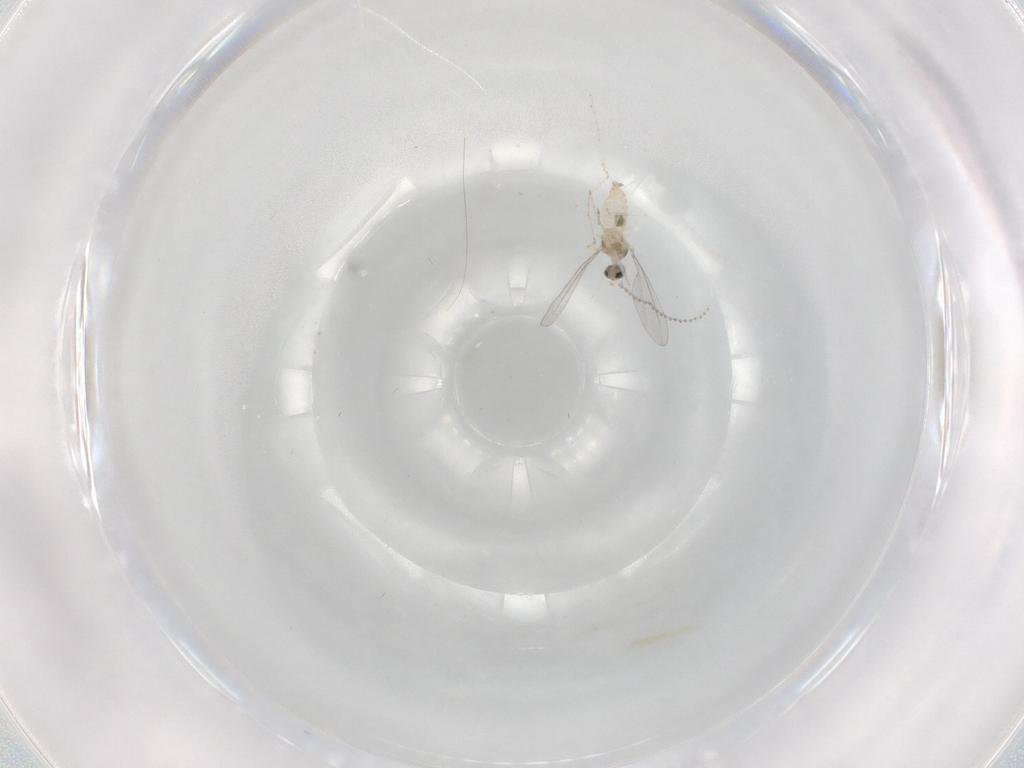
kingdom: Animalia
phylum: Arthropoda
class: Insecta
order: Diptera
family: Cecidomyiidae
